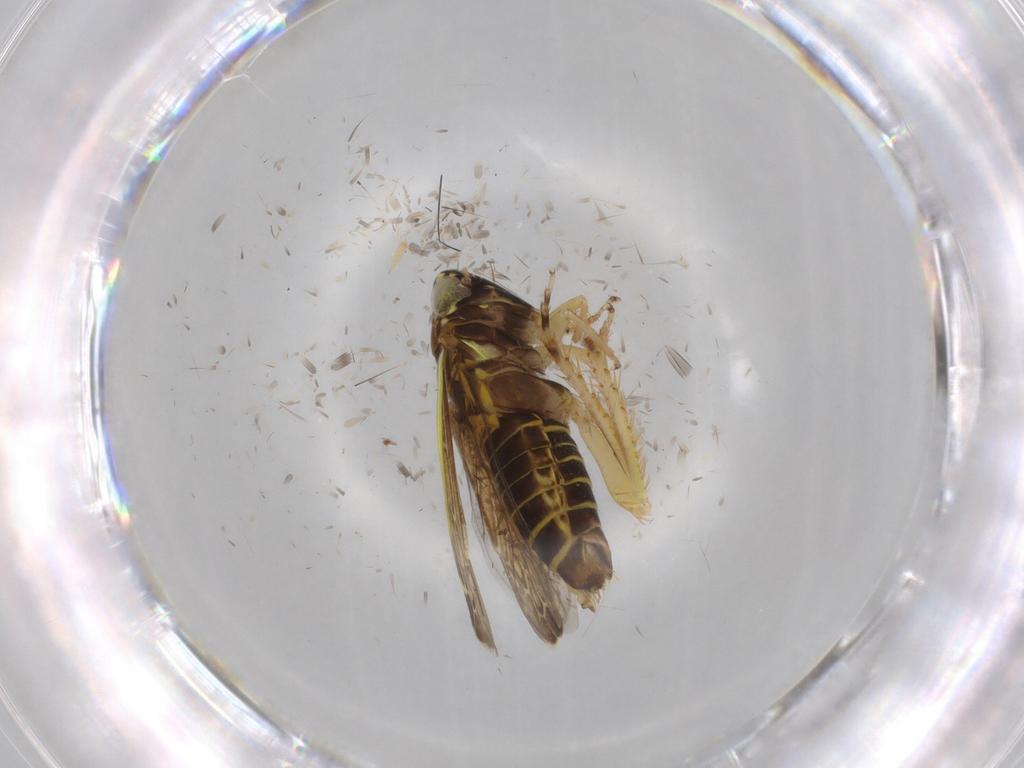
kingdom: Animalia
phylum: Arthropoda
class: Insecta
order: Hemiptera
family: Cicadellidae
